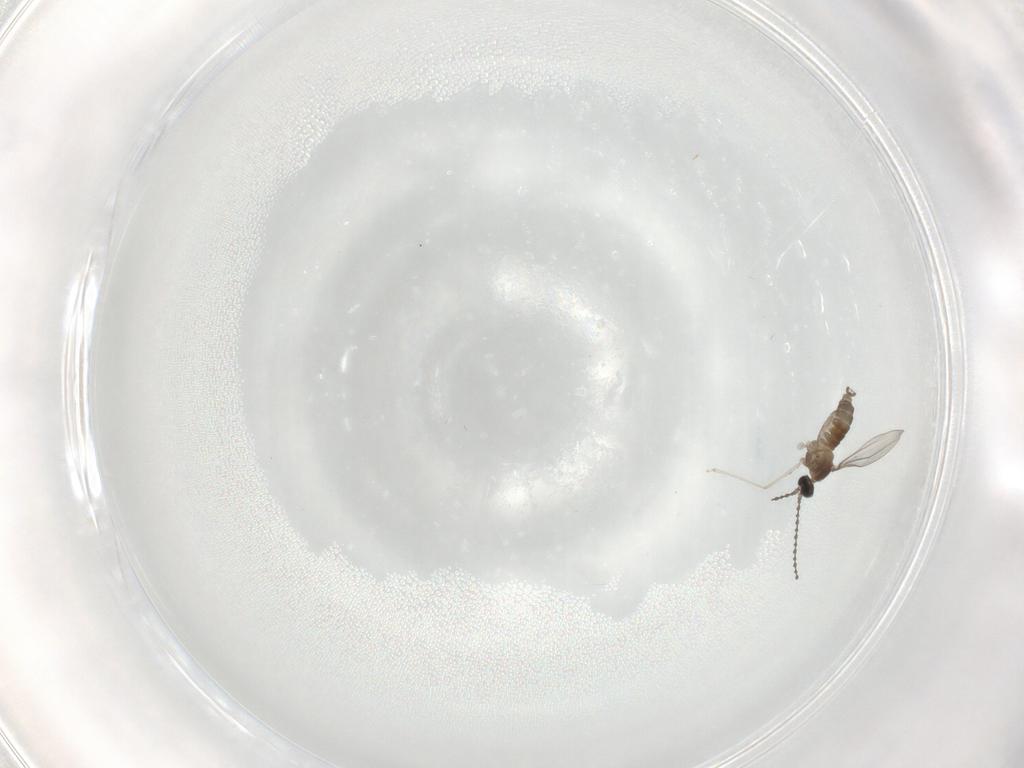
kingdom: Animalia
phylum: Arthropoda
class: Insecta
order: Diptera
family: Cecidomyiidae
